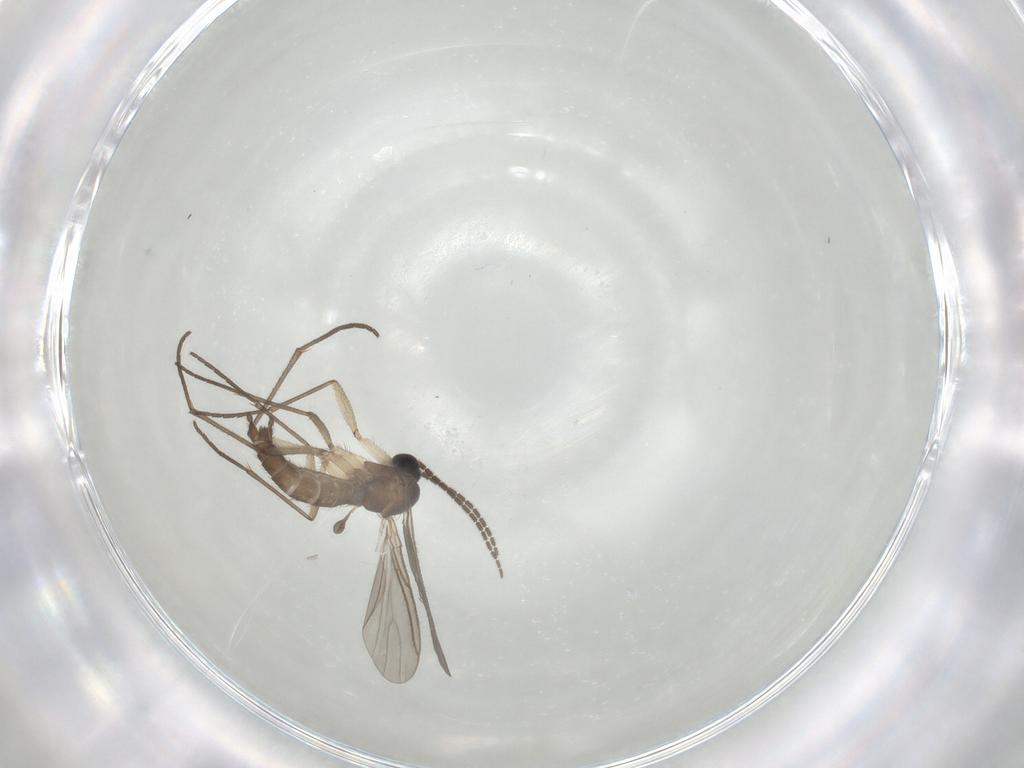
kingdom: Animalia
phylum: Arthropoda
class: Insecta
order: Diptera
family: Sciaridae
